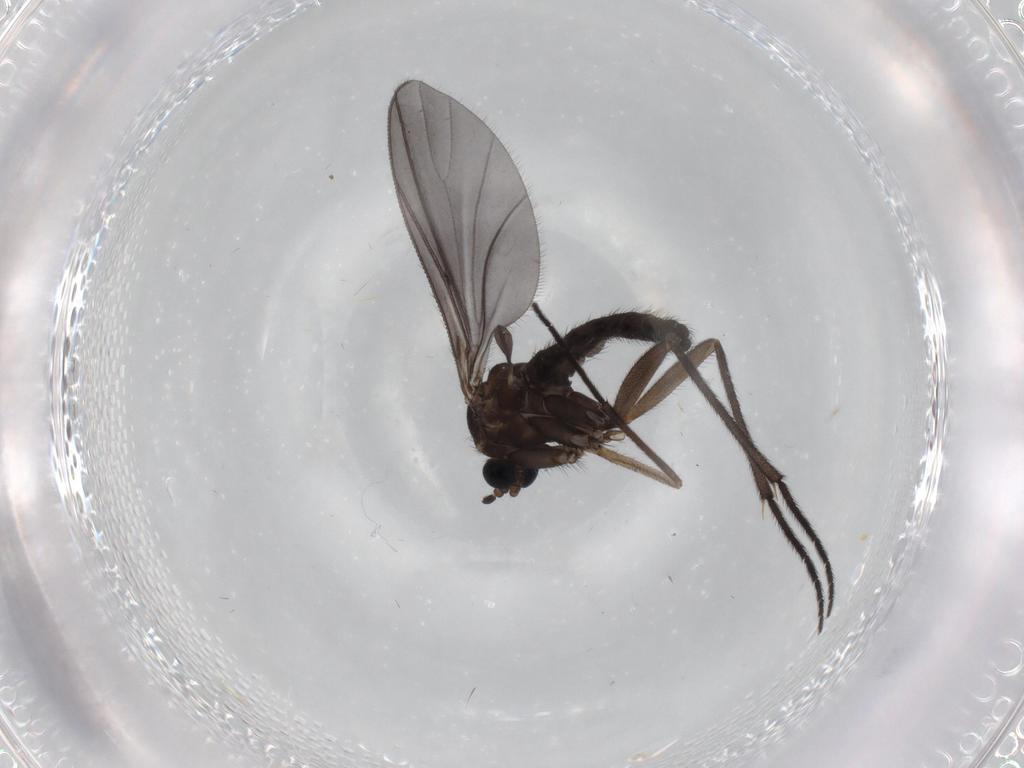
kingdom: Animalia
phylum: Arthropoda
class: Insecta
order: Diptera
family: Sciaridae
